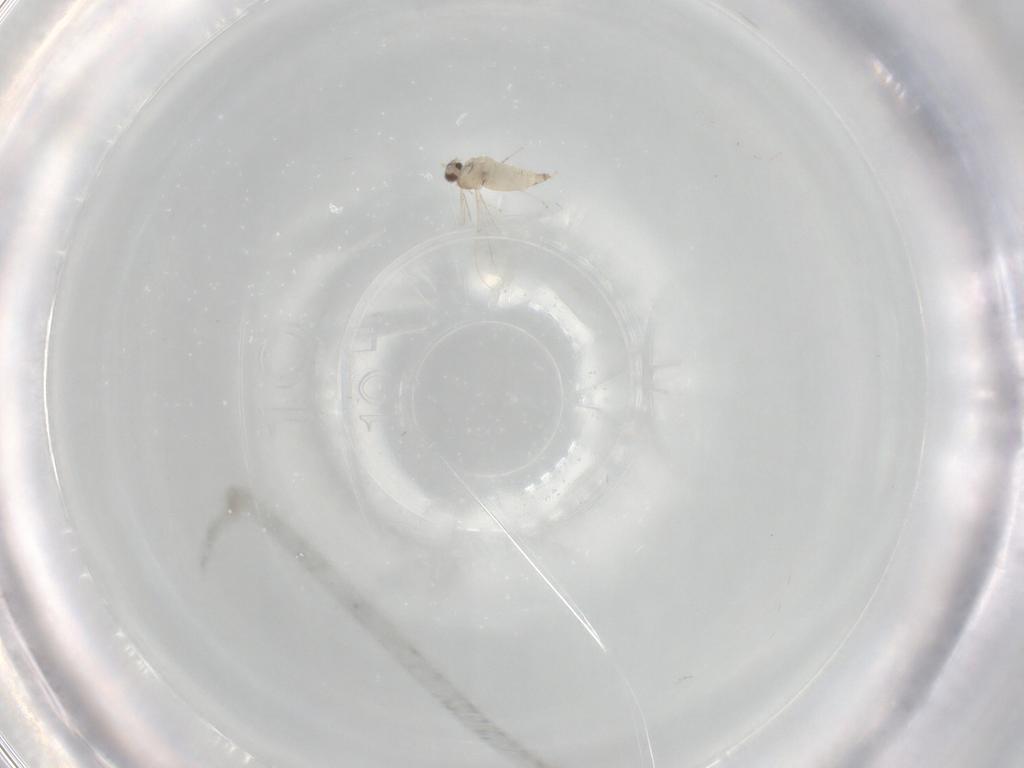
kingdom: Animalia
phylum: Arthropoda
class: Insecta
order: Diptera
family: Cecidomyiidae
